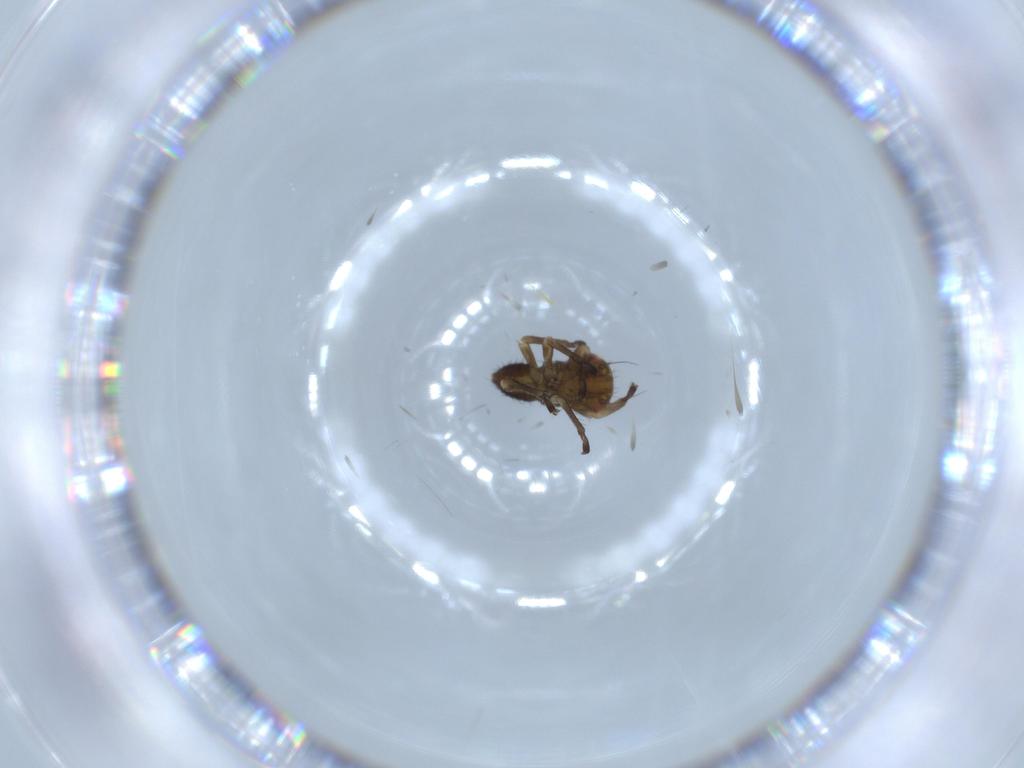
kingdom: Animalia
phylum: Arthropoda
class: Insecta
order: Hemiptera
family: Cicadellidae
